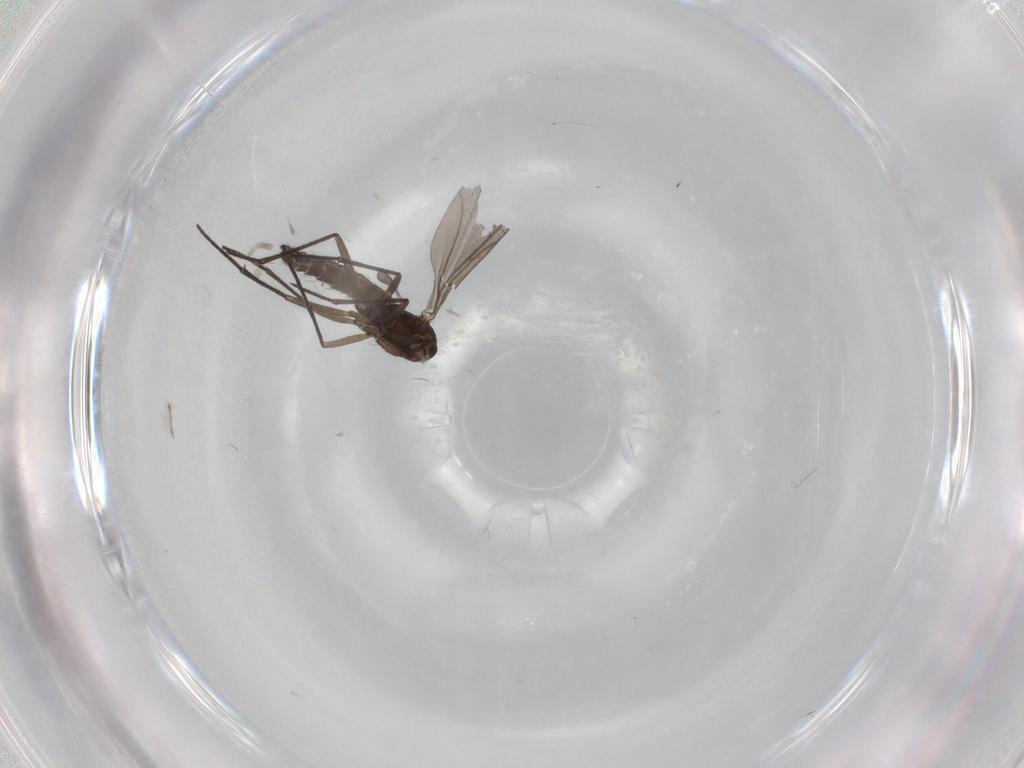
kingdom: Animalia
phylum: Arthropoda
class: Insecta
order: Diptera
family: Sciaridae
